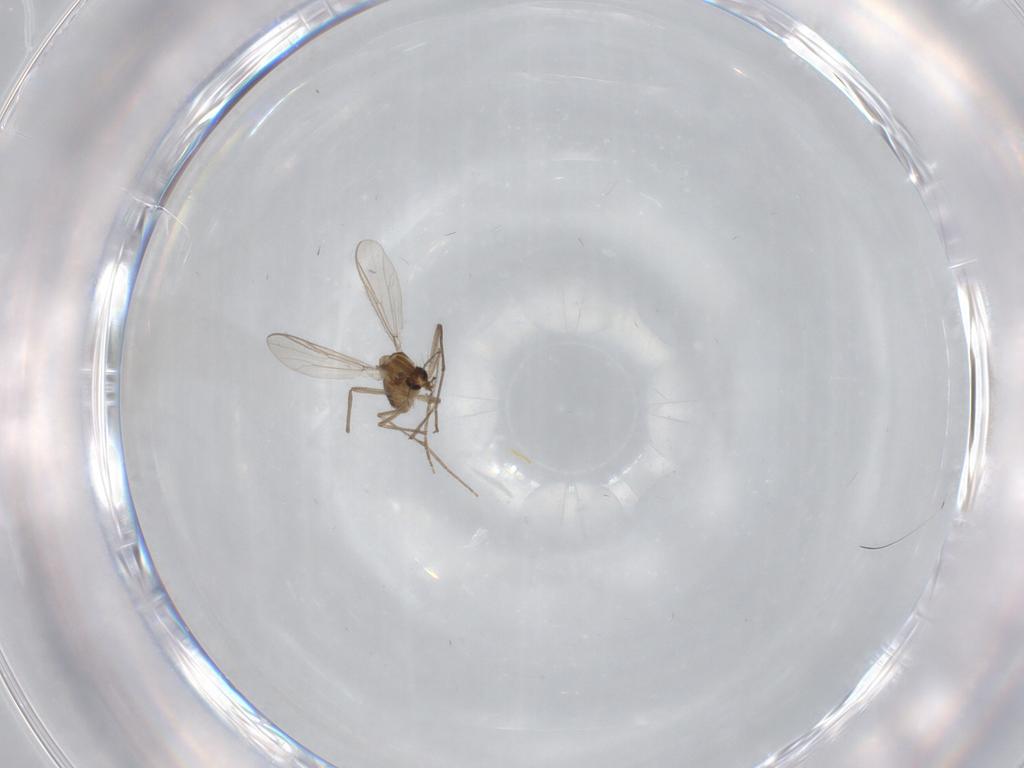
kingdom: Animalia
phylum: Arthropoda
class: Insecta
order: Diptera
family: Chironomidae
